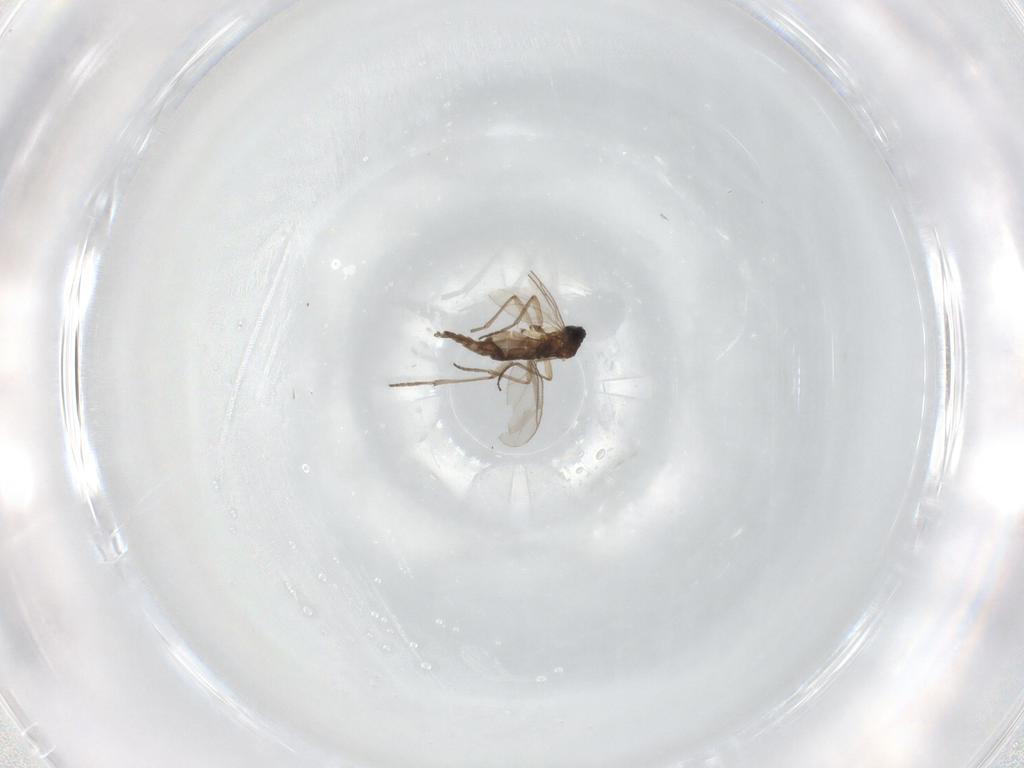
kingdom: Animalia
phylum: Arthropoda
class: Insecta
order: Diptera
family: Sciaridae
